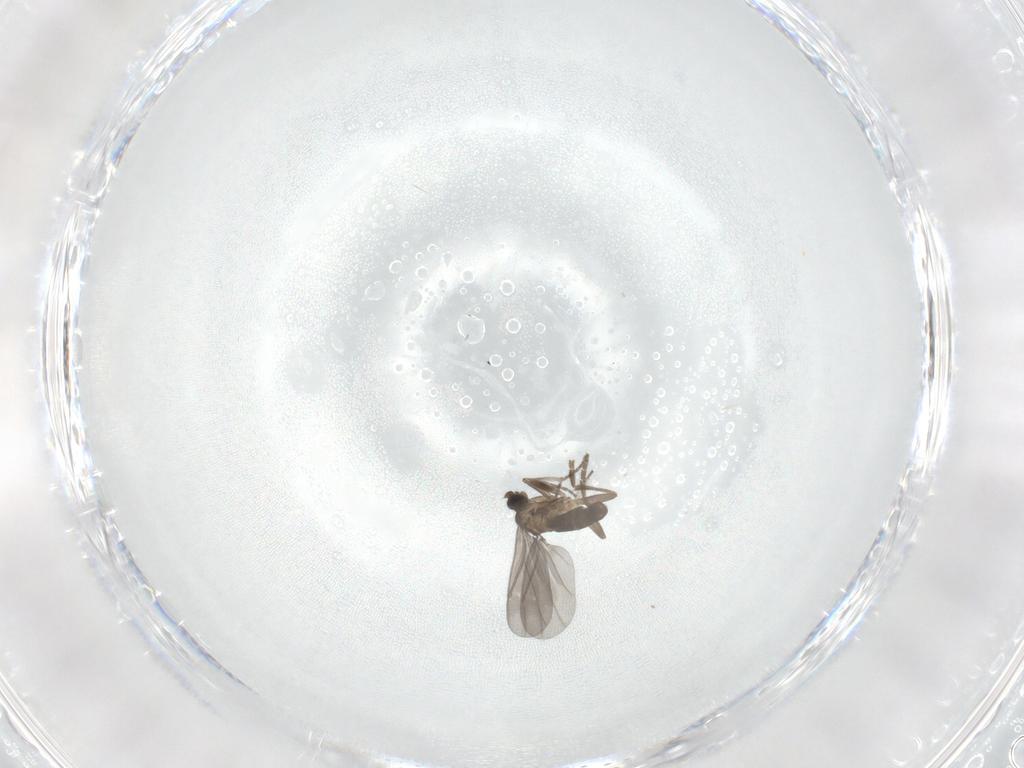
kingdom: Animalia
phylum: Arthropoda
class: Insecta
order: Diptera
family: Phoridae
